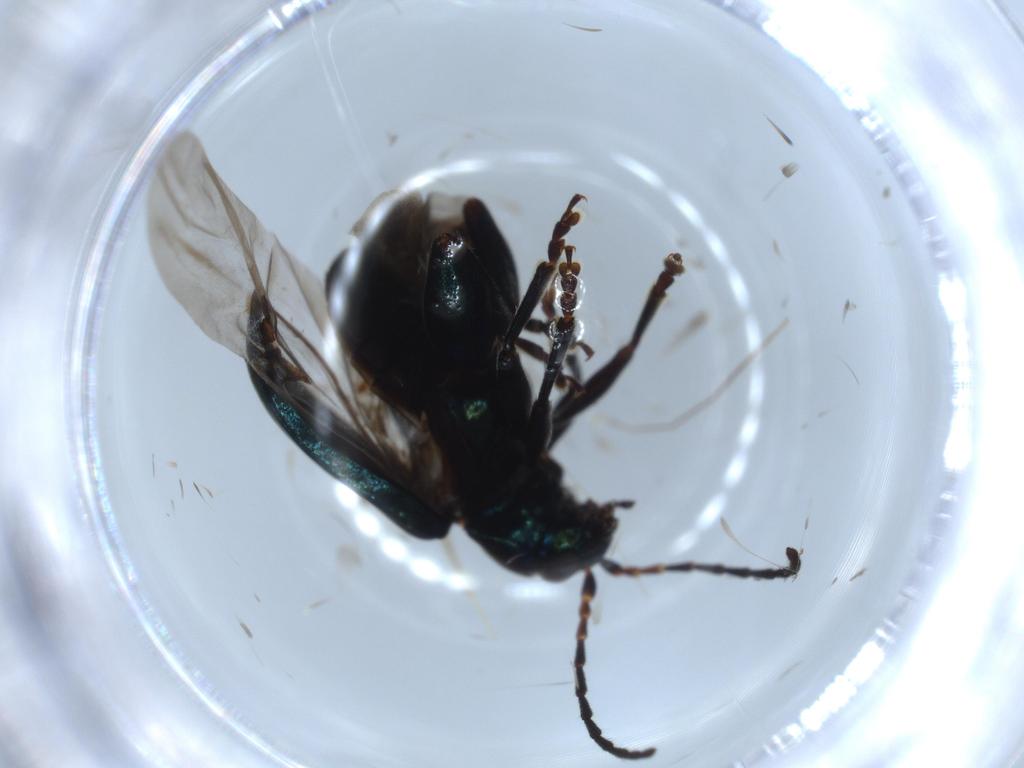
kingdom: Animalia
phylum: Arthropoda
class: Insecta
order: Coleoptera
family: Chrysomelidae
